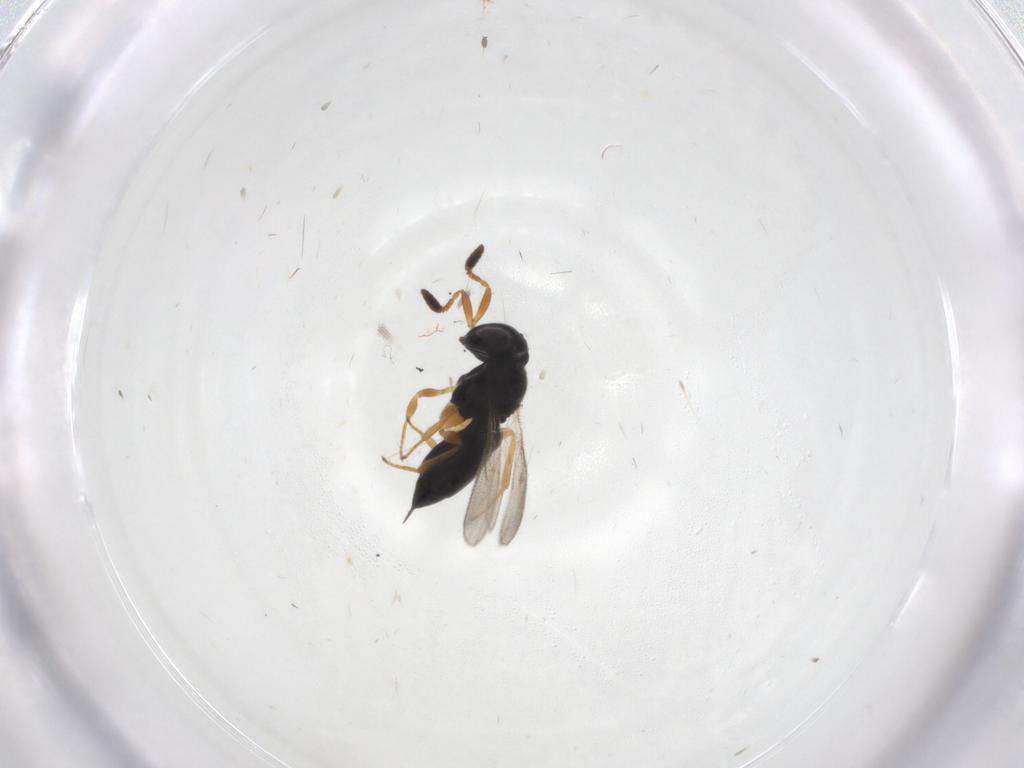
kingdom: Animalia
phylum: Arthropoda
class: Insecta
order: Hymenoptera
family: Scelionidae
